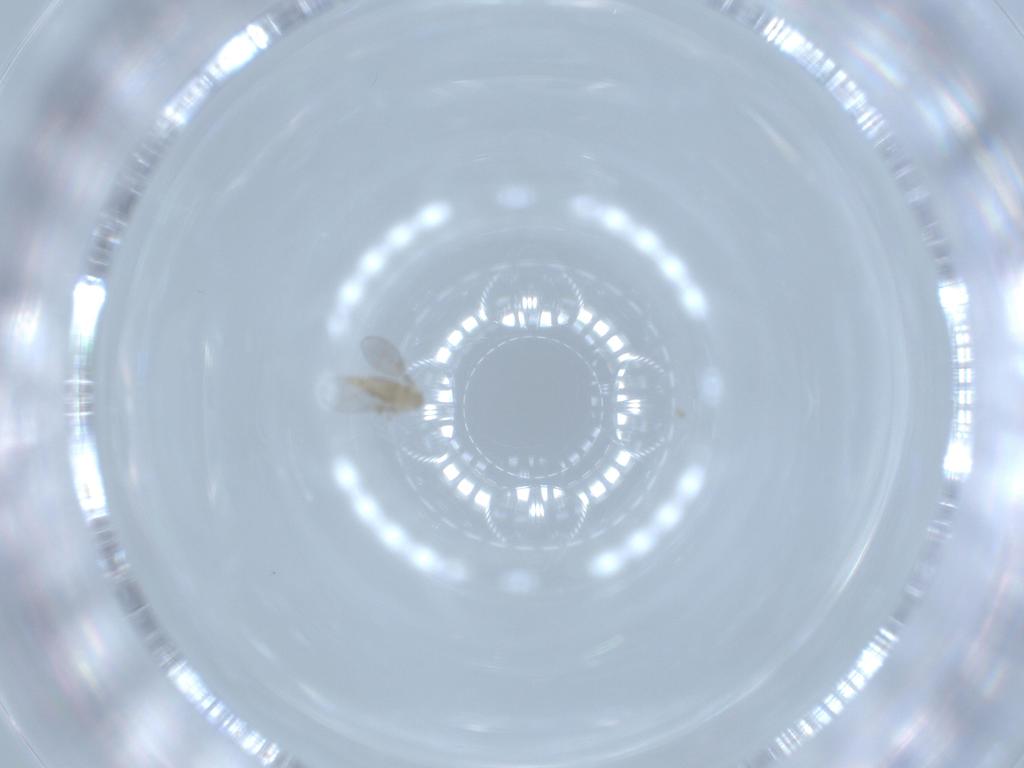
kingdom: Animalia
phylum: Arthropoda
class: Insecta
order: Diptera
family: Cecidomyiidae
